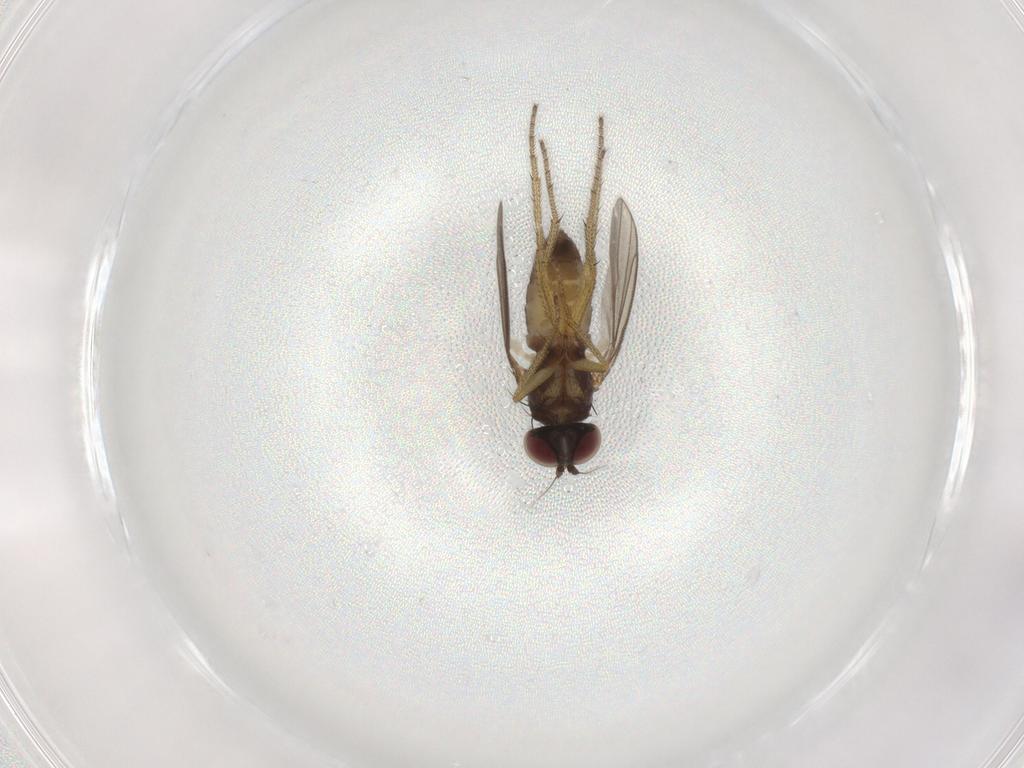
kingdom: Animalia
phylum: Arthropoda
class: Insecta
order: Diptera
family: Dolichopodidae
